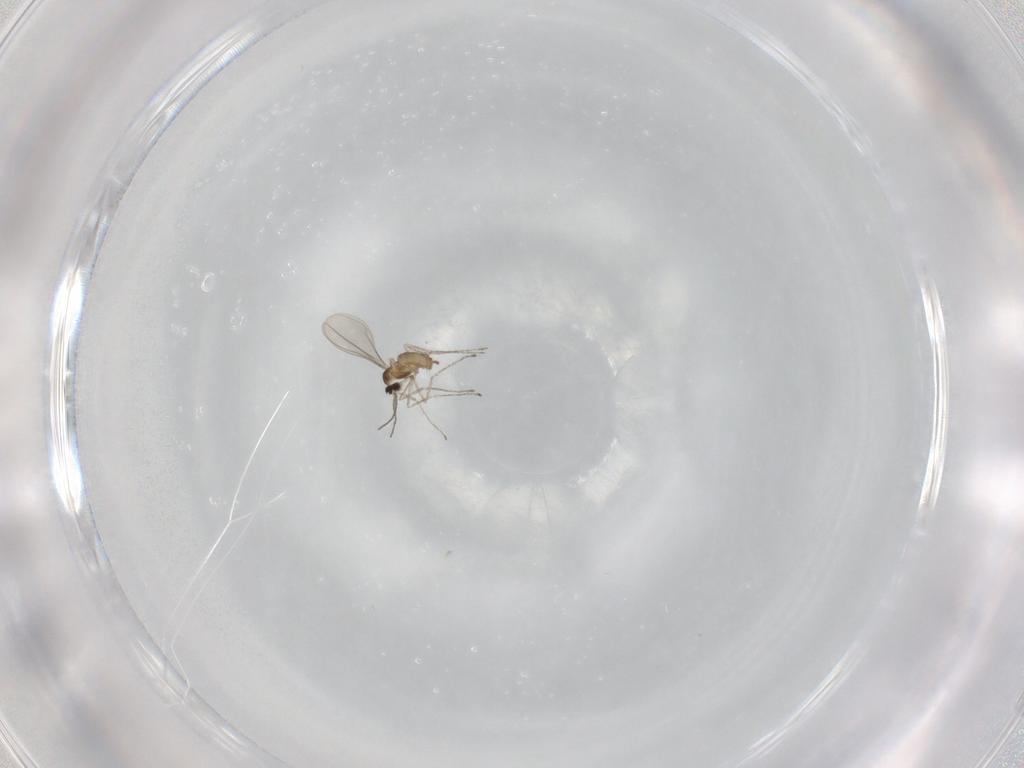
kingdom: Animalia
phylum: Arthropoda
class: Insecta
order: Diptera
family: Cecidomyiidae
